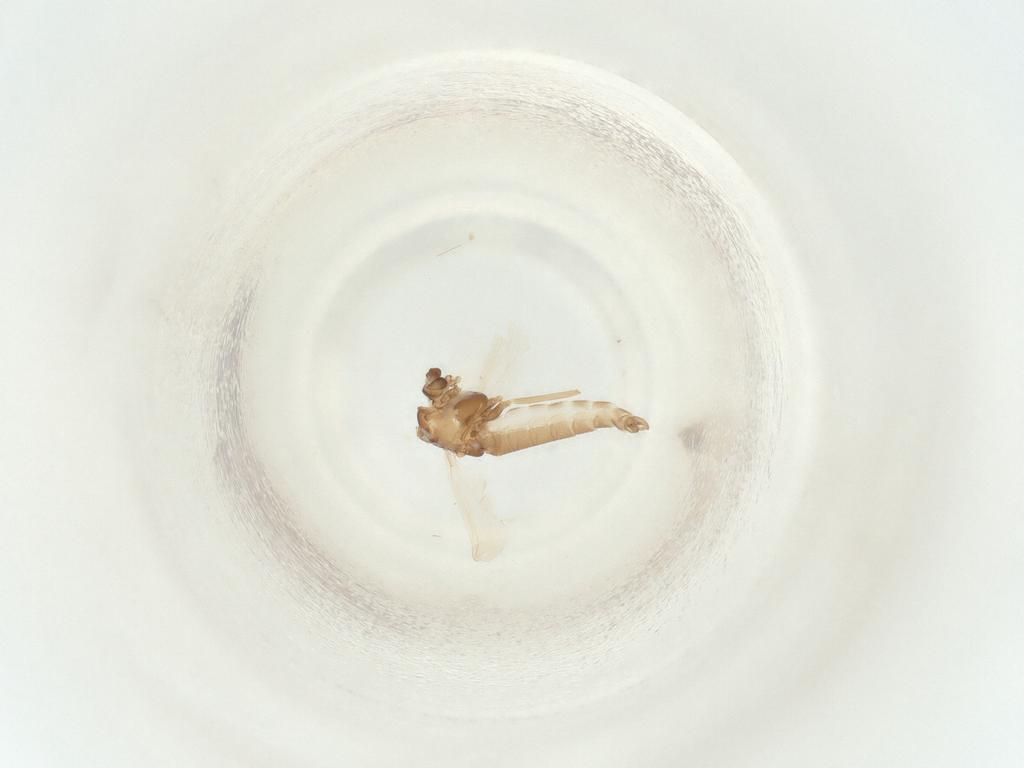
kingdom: Animalia
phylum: Arthropoda
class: Insecta
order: Diptera
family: Chironomidae
